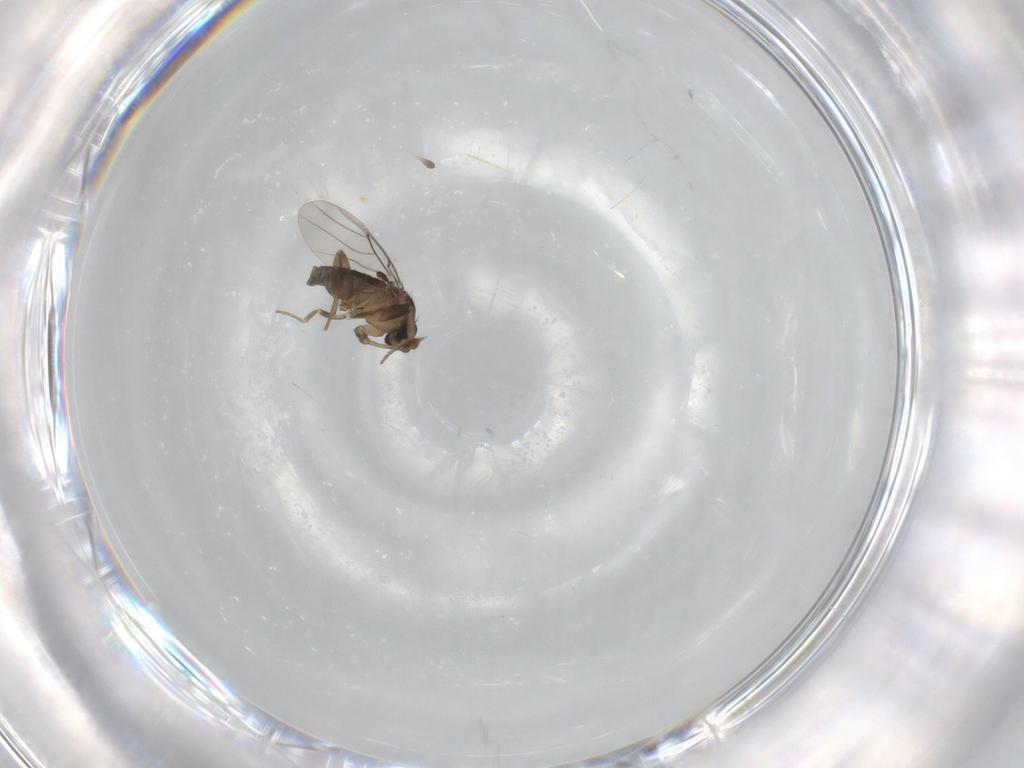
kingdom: Animalia
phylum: Arthropoda
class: Insecta
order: Diptera
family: Phoridae
